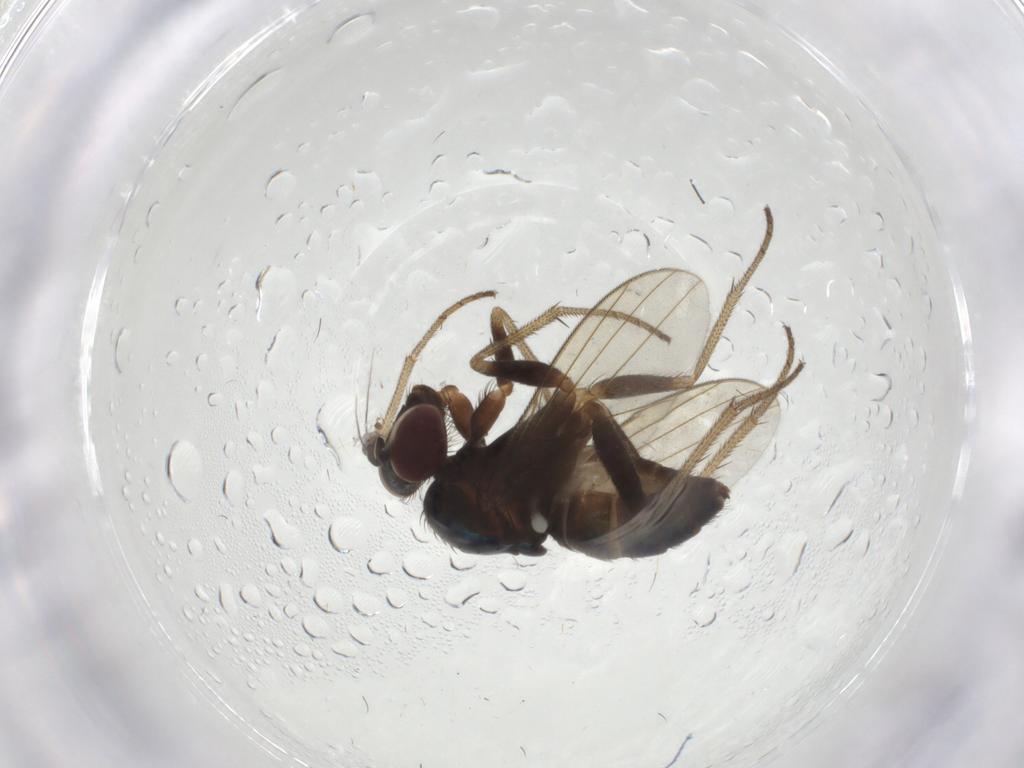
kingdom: Animalia
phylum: Arthropoda
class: Insecta
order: Diptera
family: Dolichopodidae
